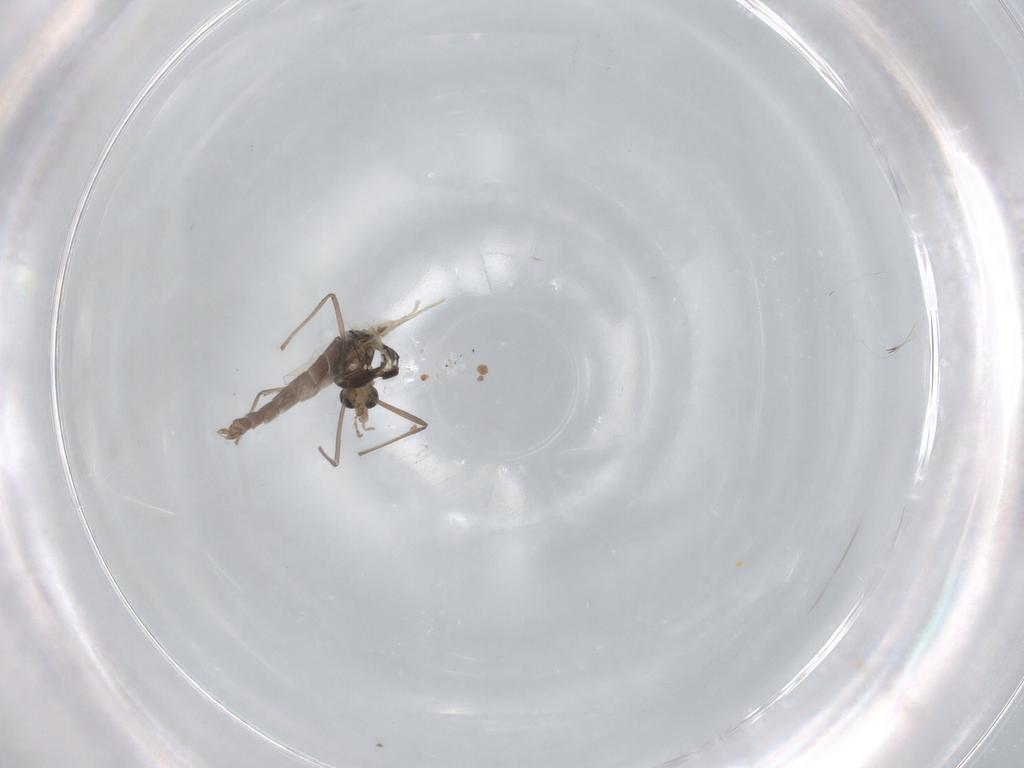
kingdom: Animalia
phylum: Arthropoda
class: Insecta
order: Diptera
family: Chironomidae
